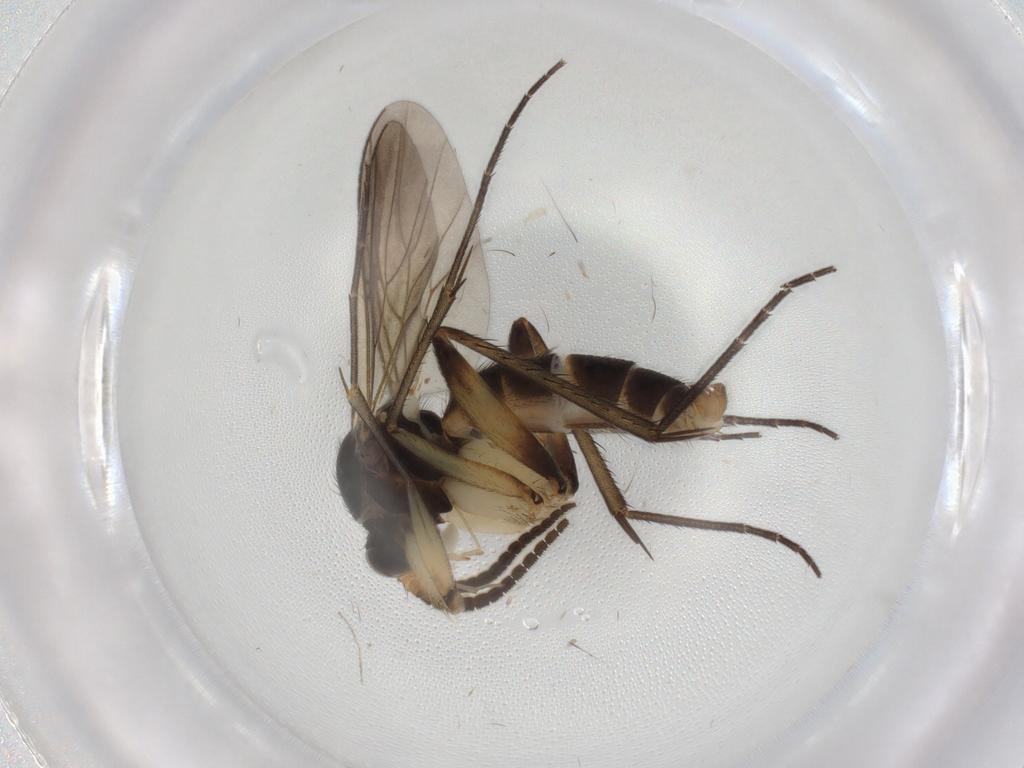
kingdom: Animalia
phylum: Arthropoda
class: Insecta
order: Diptera
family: Mycetophilidae
